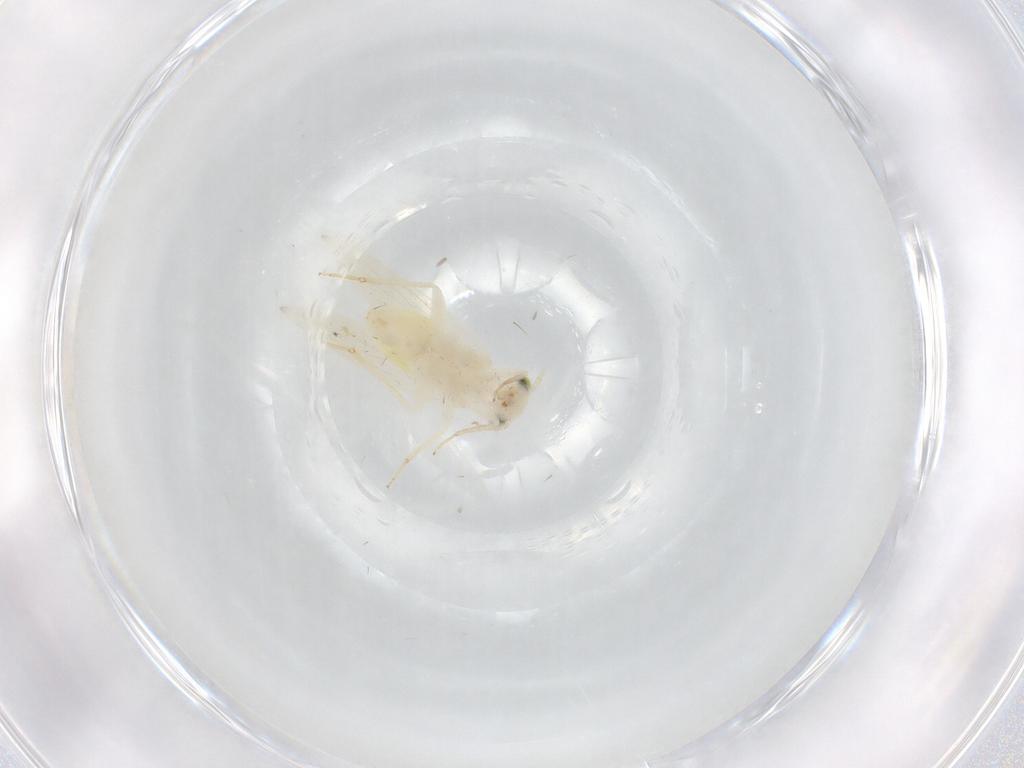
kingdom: Animalia
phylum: Arthropoda
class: Insecta
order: Psocodea
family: Lepidopsocidae
